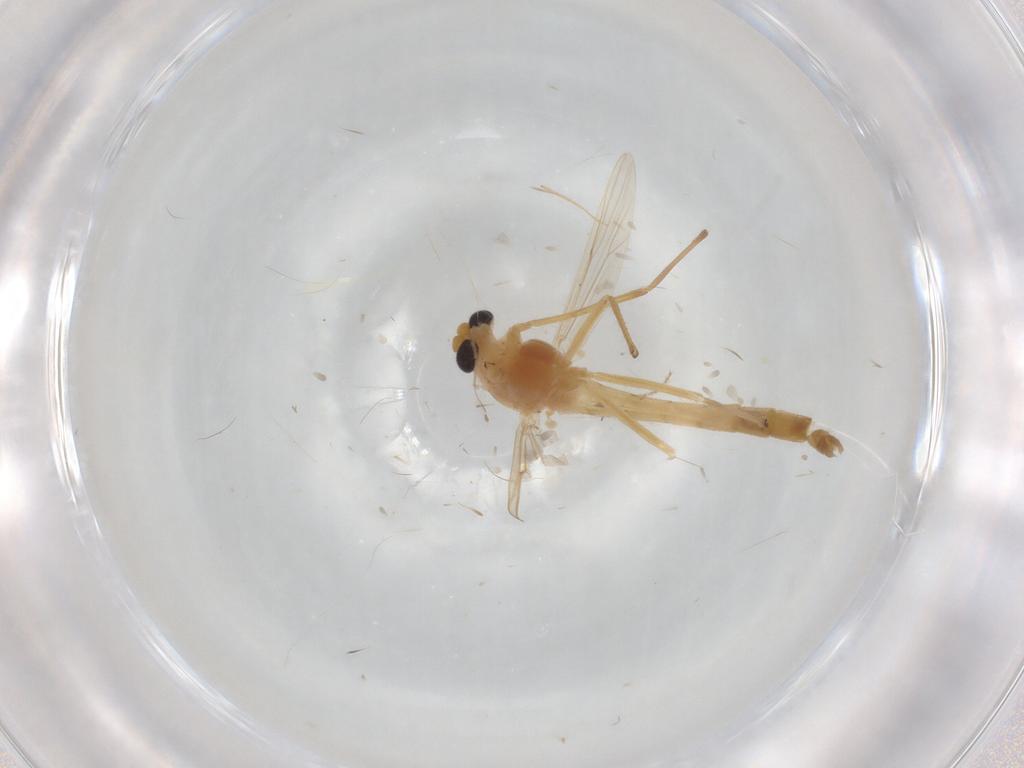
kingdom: Animalia
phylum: Arthropoda
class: Insecta
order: Diptera
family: Chironomidae
